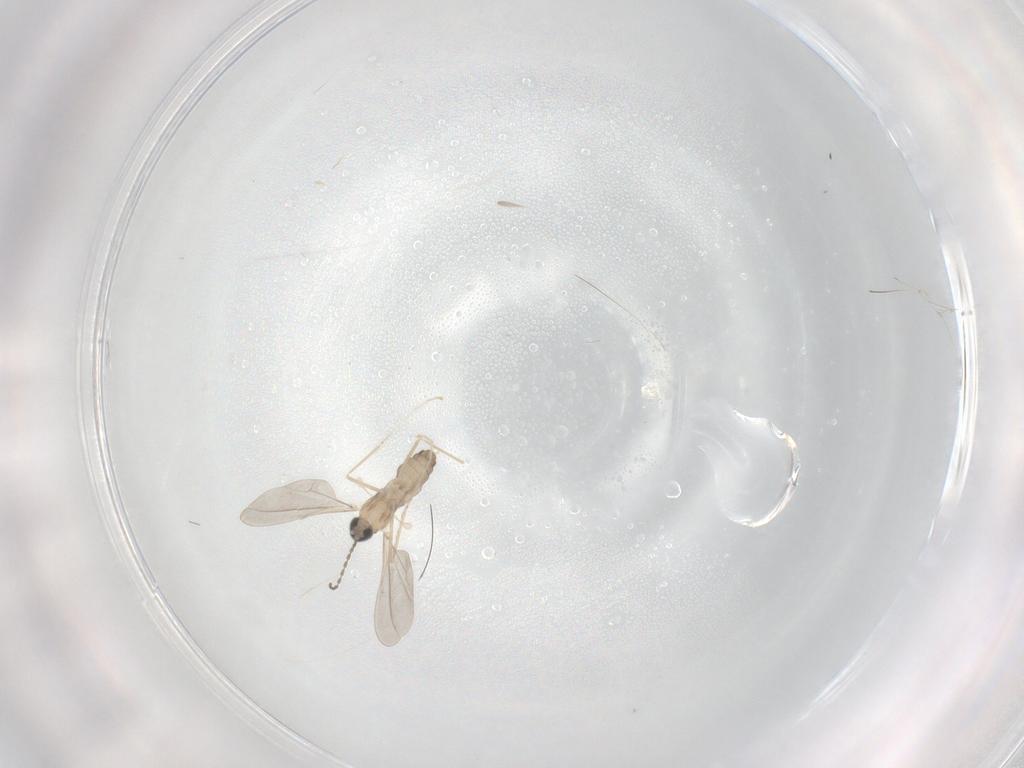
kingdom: Animalia
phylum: Arthropoda
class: Insecta
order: Diptera
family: Cecidomyiidae
